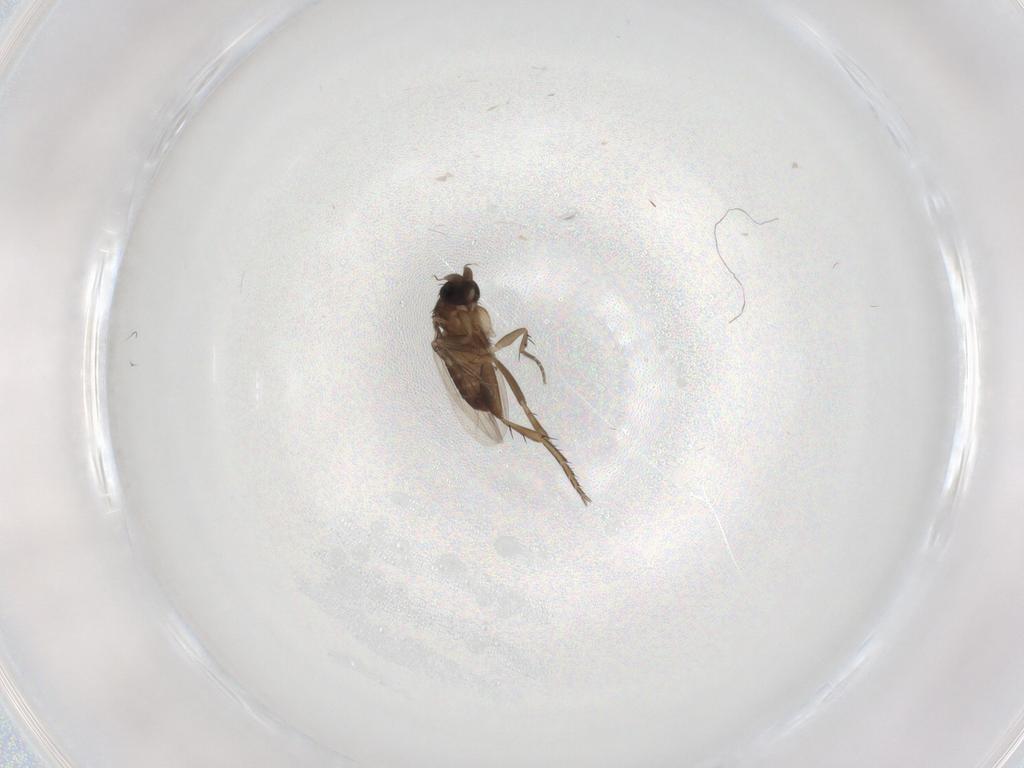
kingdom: Animalia
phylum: Arthropoda
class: Insecta
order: Diptera
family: Phoridae
